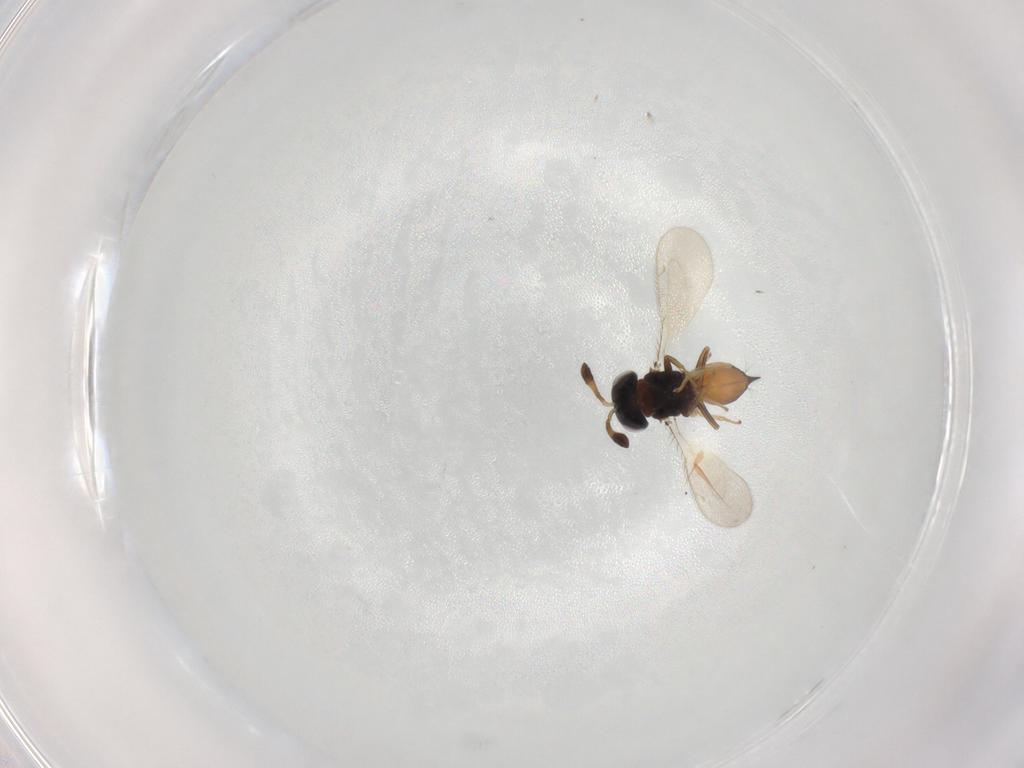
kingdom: Animalia
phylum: Arthropoda
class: Insecta
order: Hymenoptera
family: Diparidae
